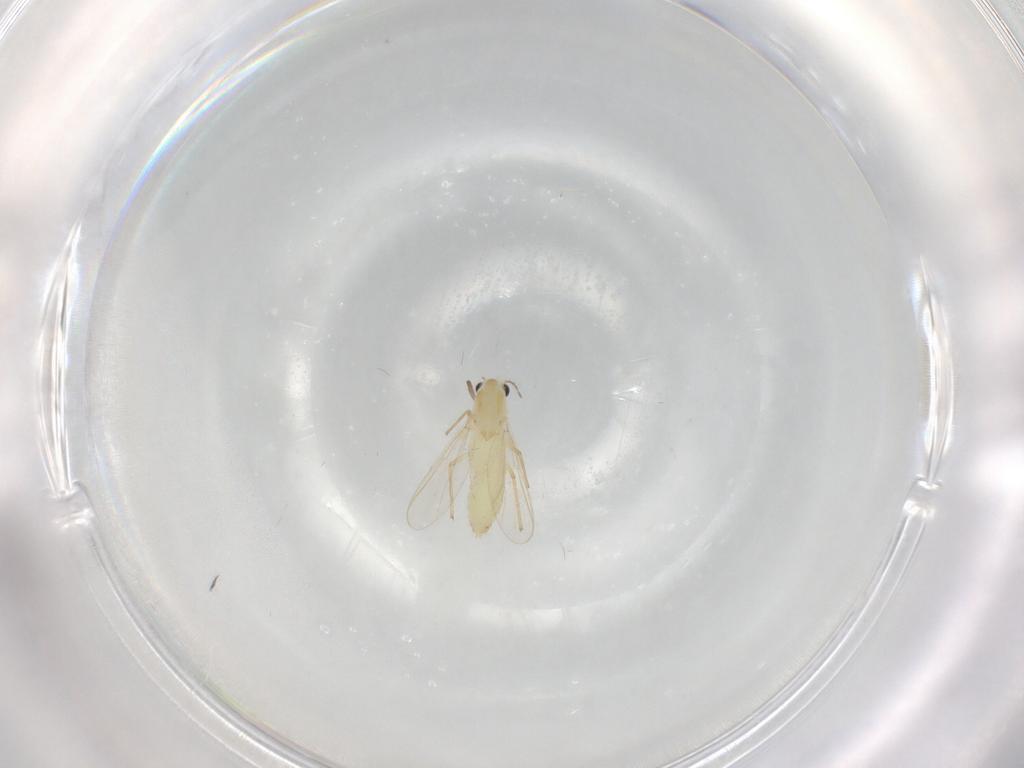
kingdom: Animalia
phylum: Arthropoda
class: Insecta
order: Diptera
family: Chironomidae
